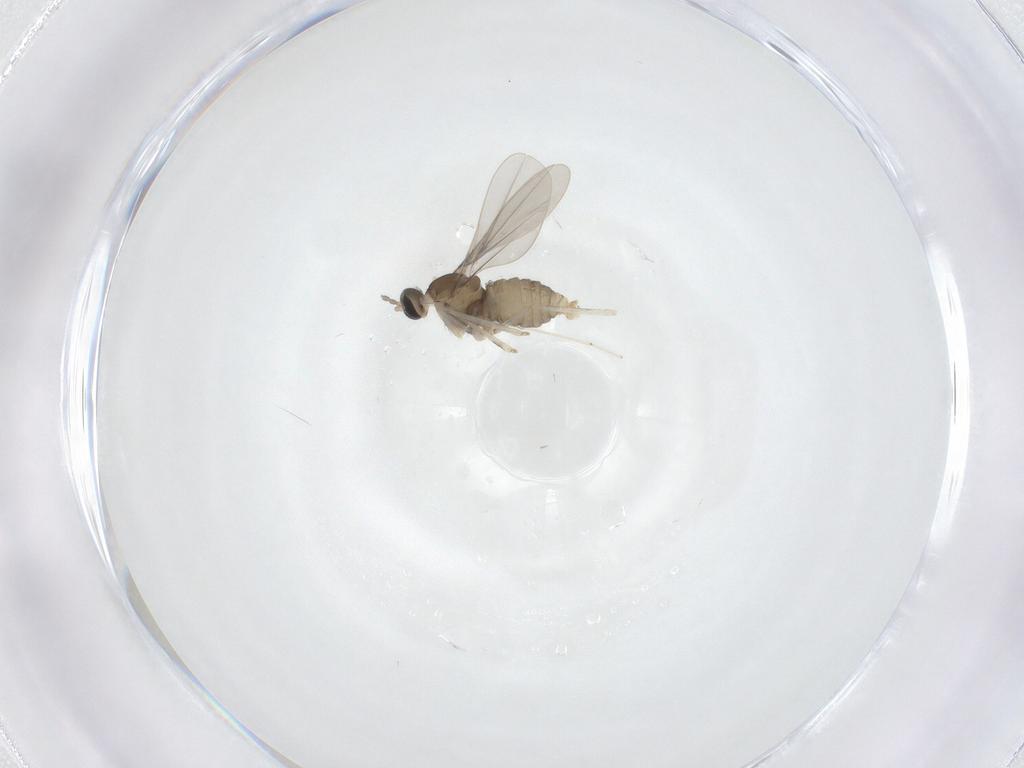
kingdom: Animalia
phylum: Arthropoda
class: Insecta
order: Diptera
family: Cecidomyiidae
